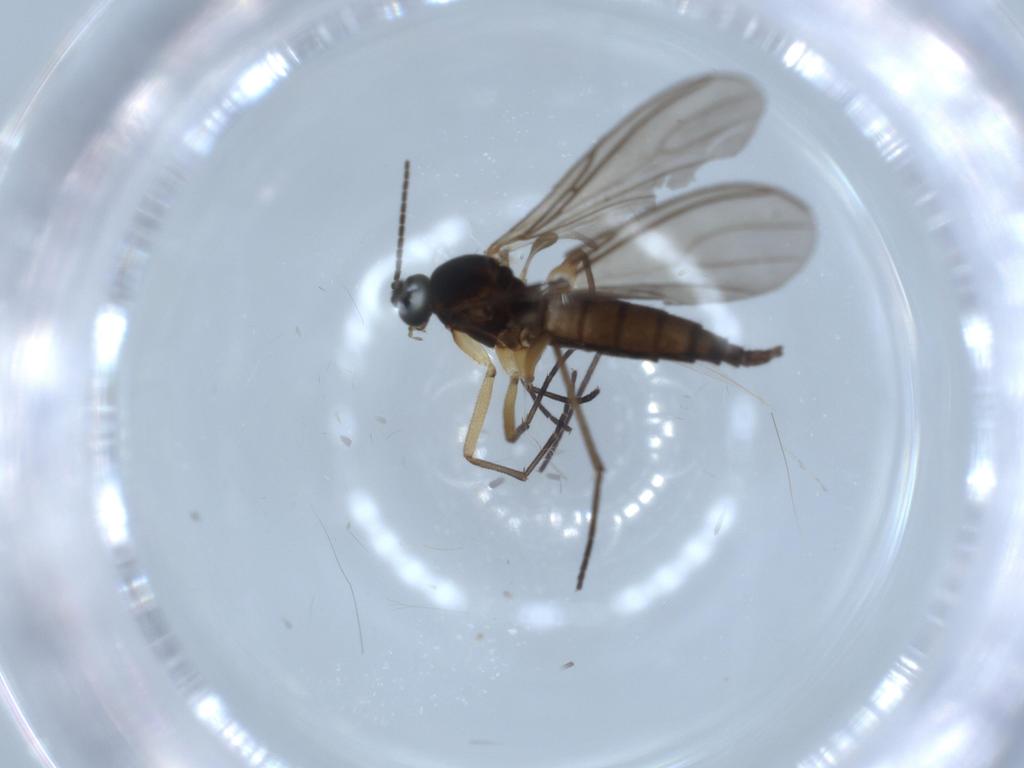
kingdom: Animalia
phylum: Arthropoda
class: Insecta
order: Diptera
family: Sciaridae
